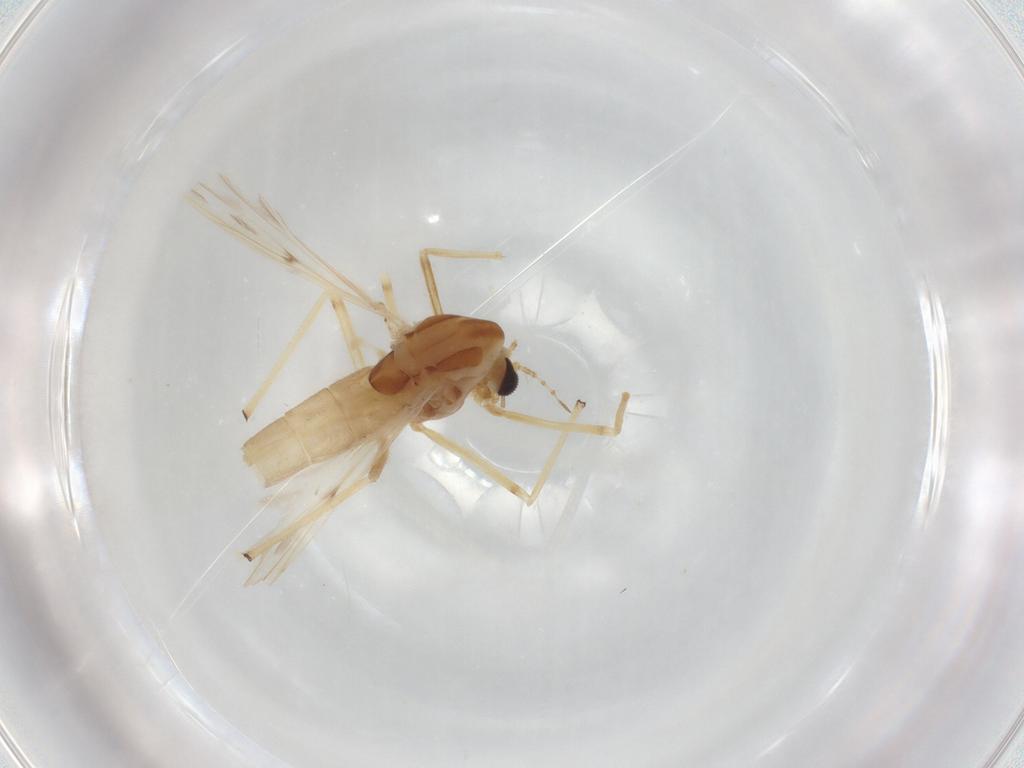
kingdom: Animalia
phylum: Arthropoda
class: Insecta
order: Diptera
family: Chironomidae
